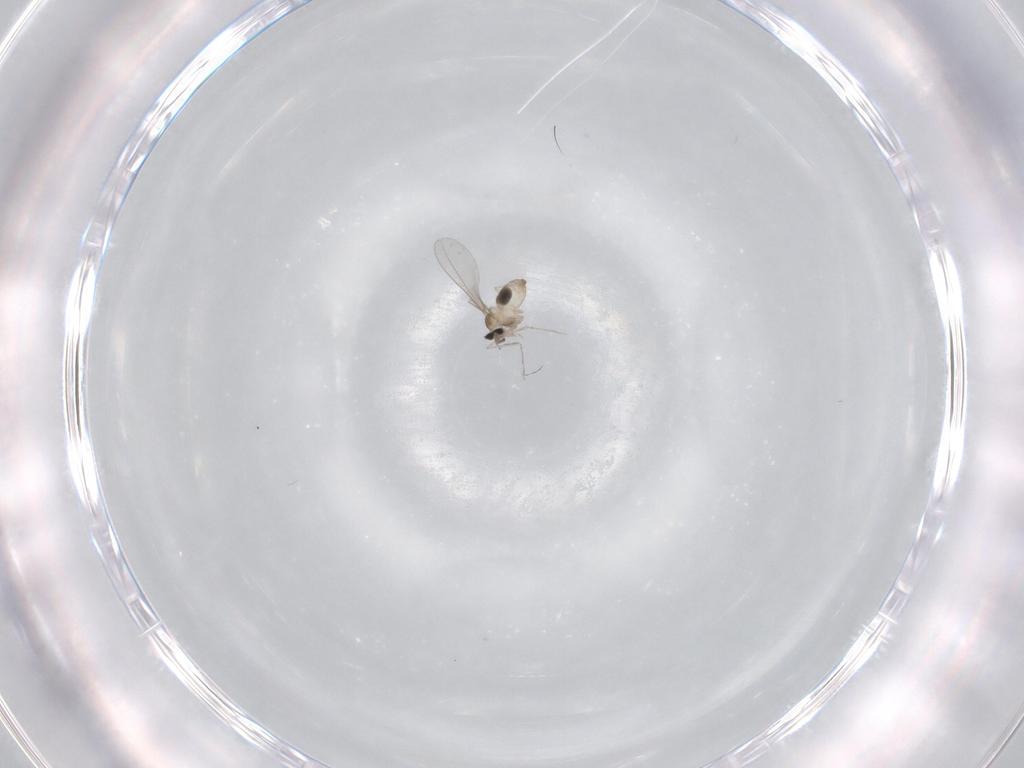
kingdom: Animalia
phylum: Arthropoda
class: Insecta
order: Diptera
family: Cecidomyiidae
